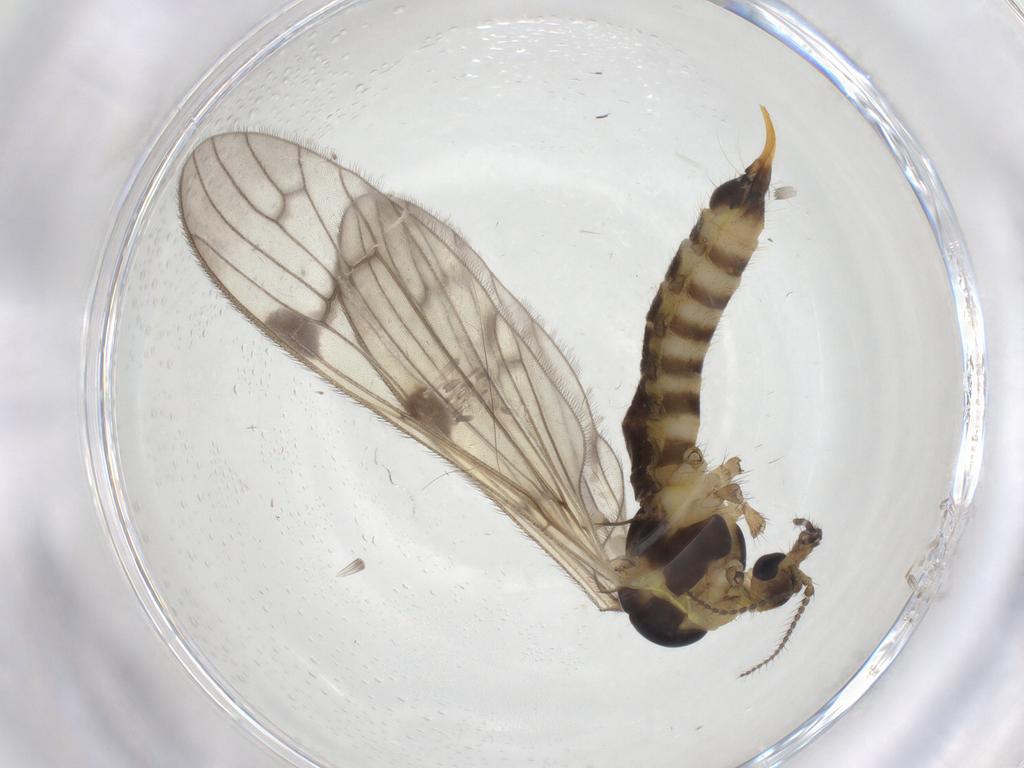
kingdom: Animalia
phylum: Arthropoda
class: Insecta
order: Diptera
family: Limoniidae
